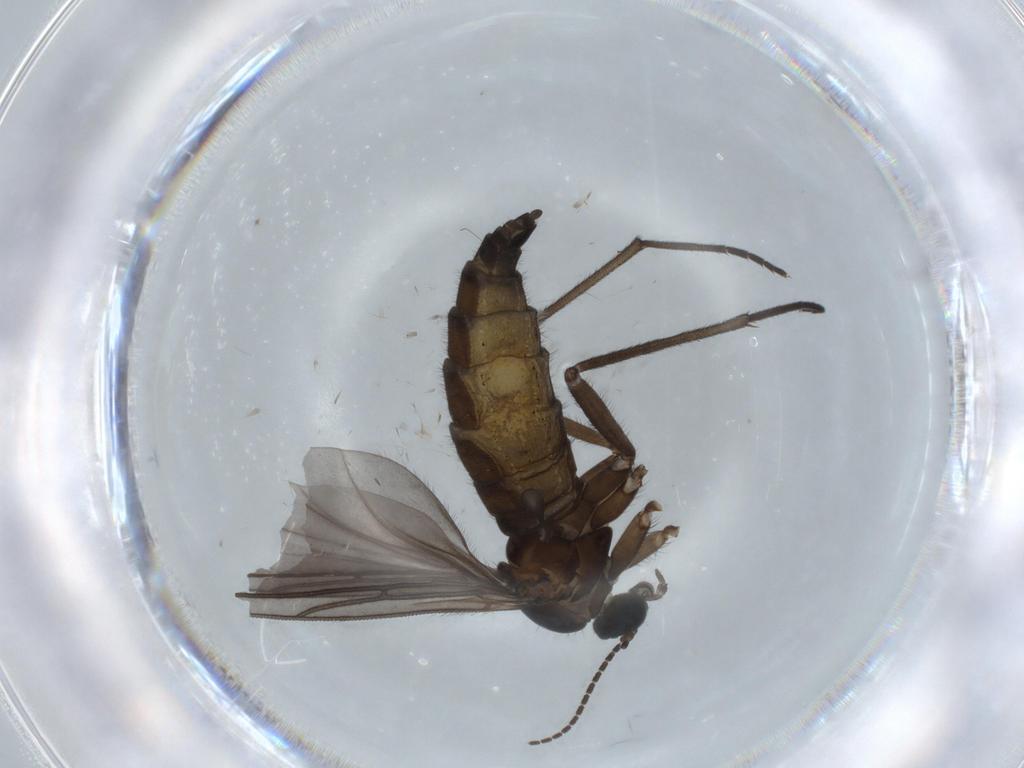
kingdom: Animalia
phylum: Arthropoda
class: Insecta
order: Diptera
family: Sciaridae
